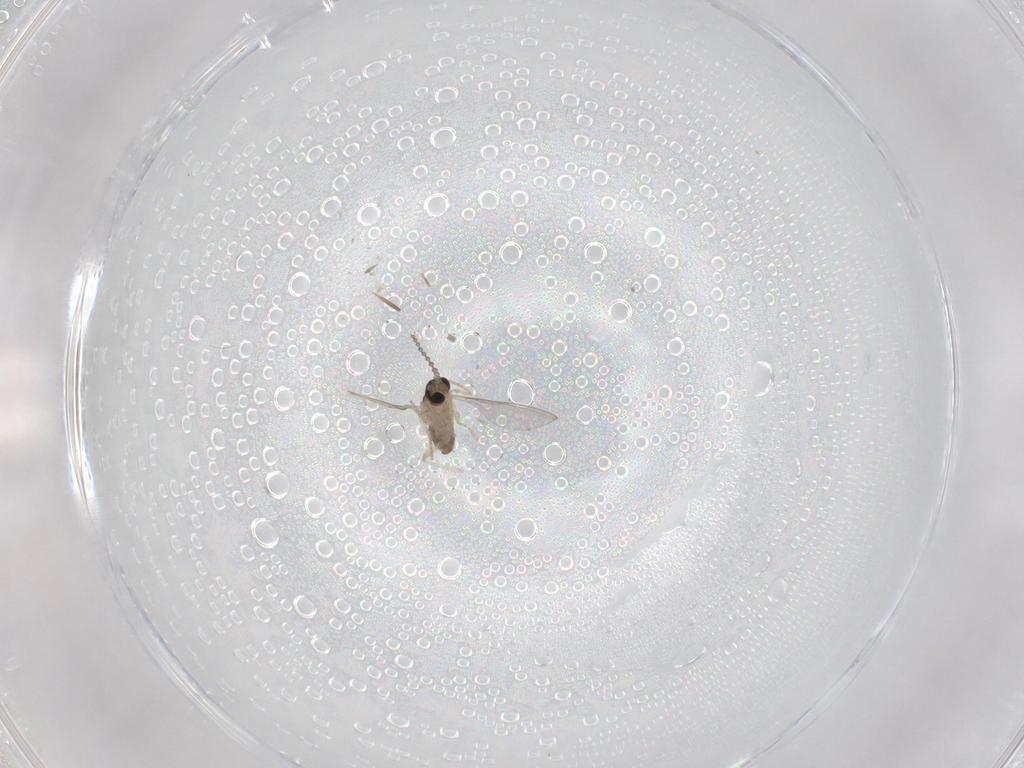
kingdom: Animalia
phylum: Arthropoda
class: Insecta
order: Diptera
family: Cecidomyiidae
